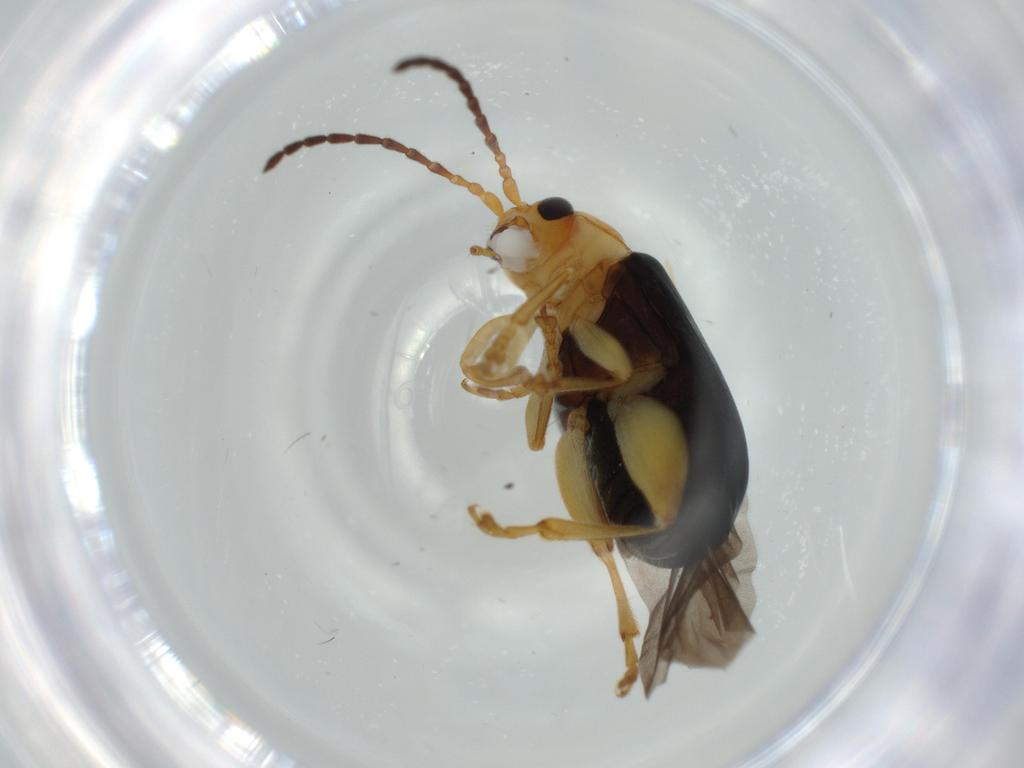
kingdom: Animalia
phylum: Arthropoda
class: Insecta
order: Coleoptera
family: Chrysomelidae
